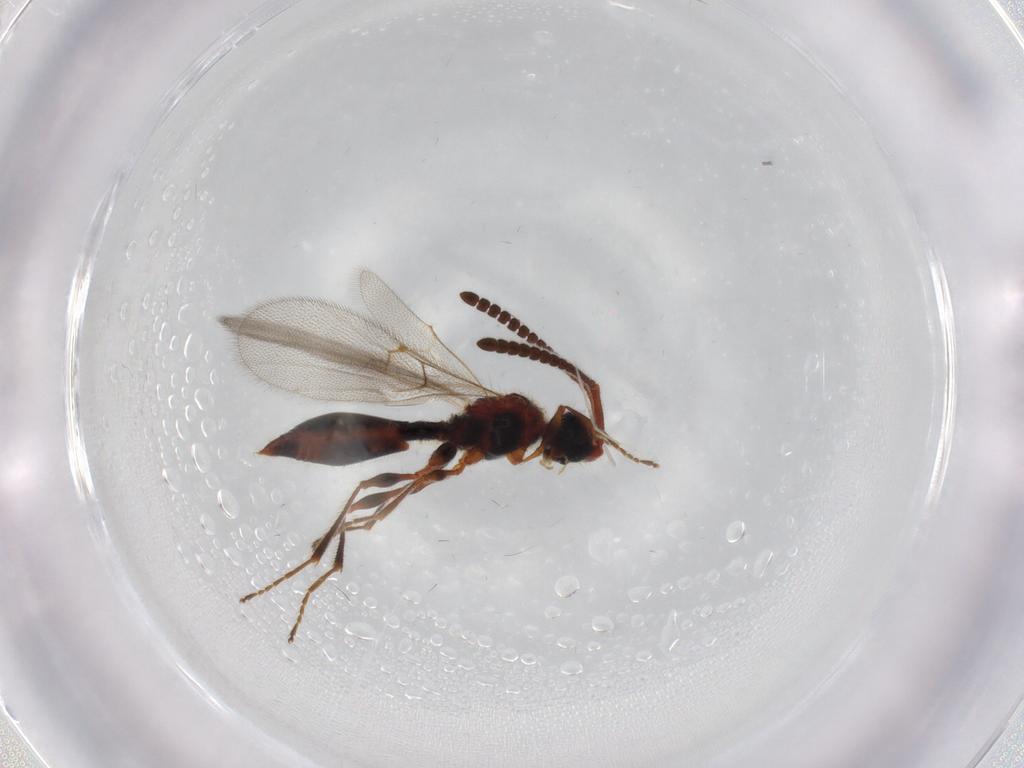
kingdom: Animalia
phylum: Arthropoda
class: Insecta
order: Hymenoptera
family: Diapriidae
